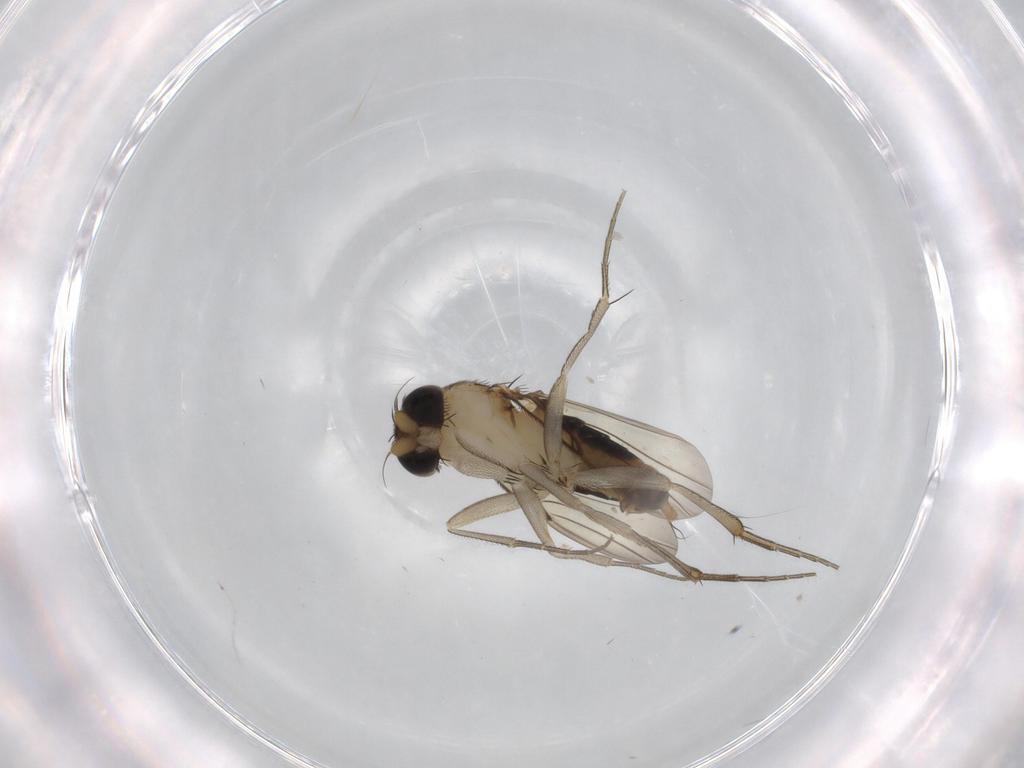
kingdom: Animalia
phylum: Arthropoda
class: Insecta
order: Diptera
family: Phoridae
